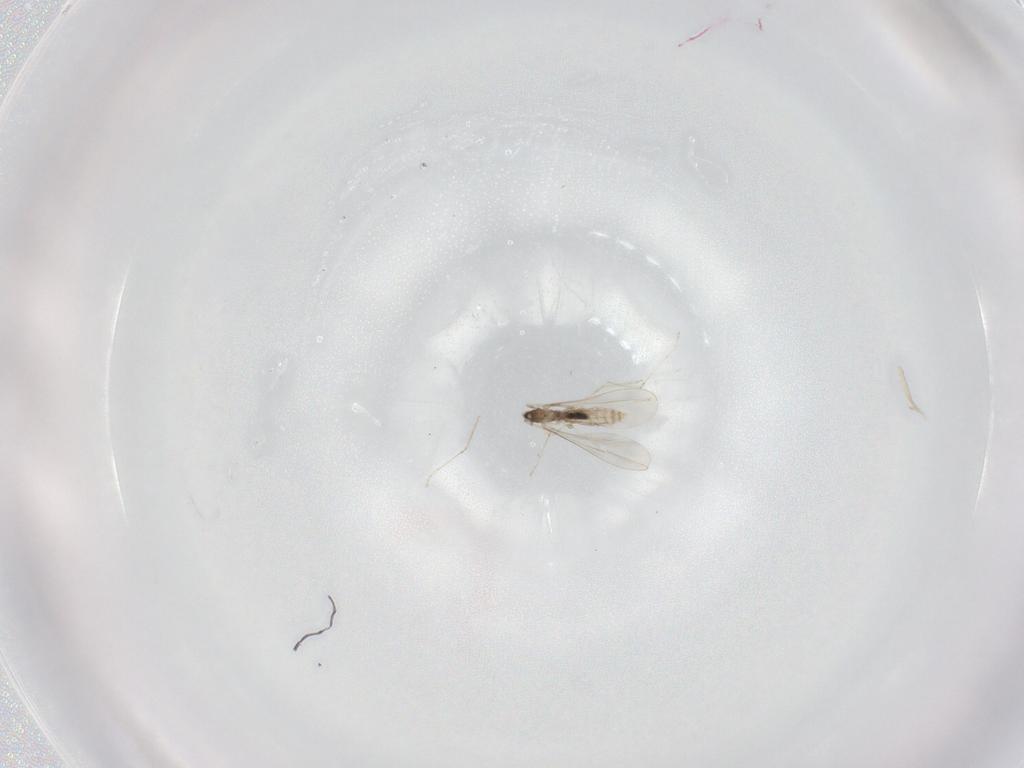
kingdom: Animalia
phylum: Arthropoda
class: Insecta
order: Diptera
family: Cecidomyiidae
